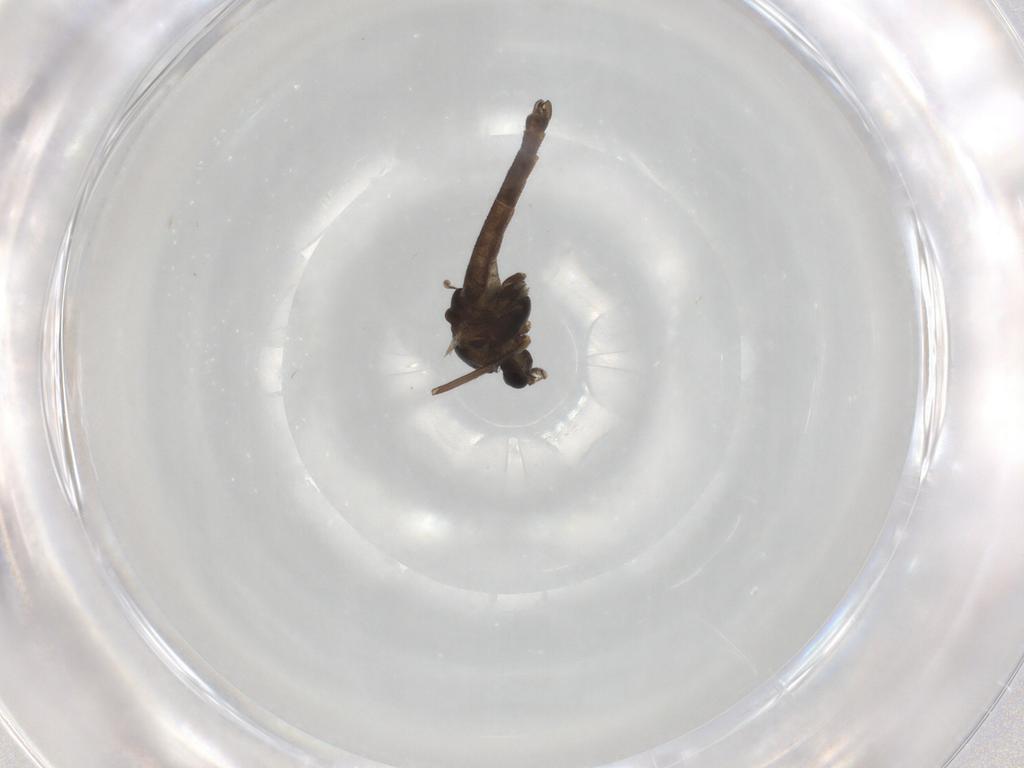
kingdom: Animalia
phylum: Arthropoda
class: Insecta
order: Diptera
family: Chironomidae
